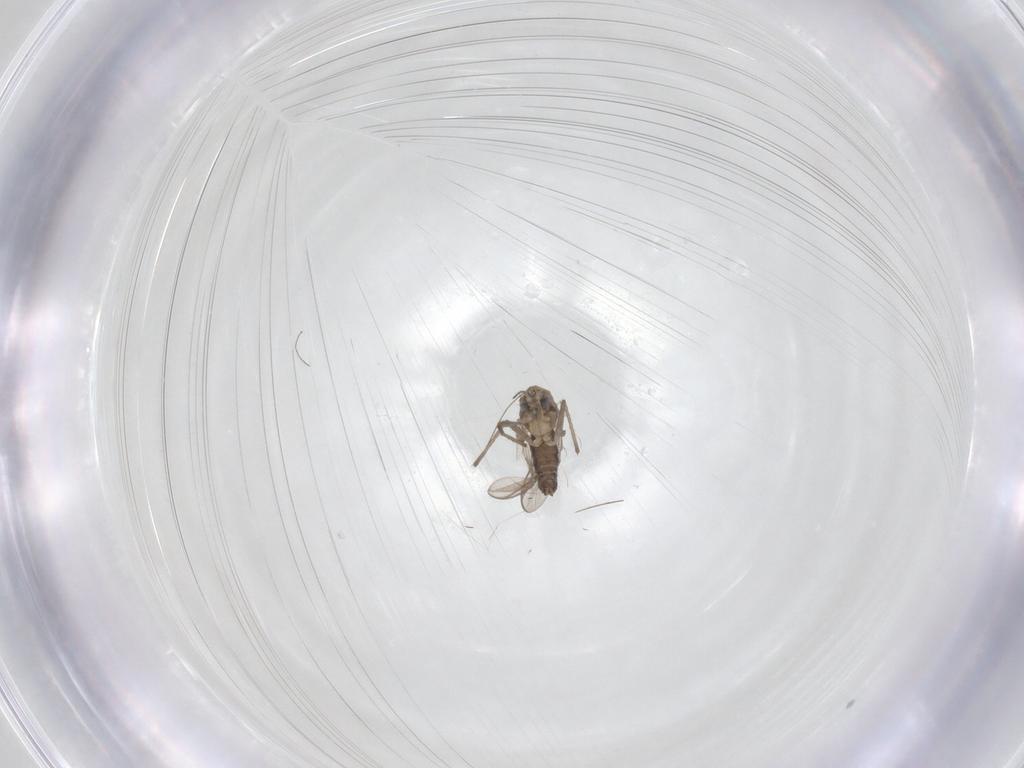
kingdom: Animalia
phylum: Arthropoda
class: Insecta
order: Diptera
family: Chironomidae
